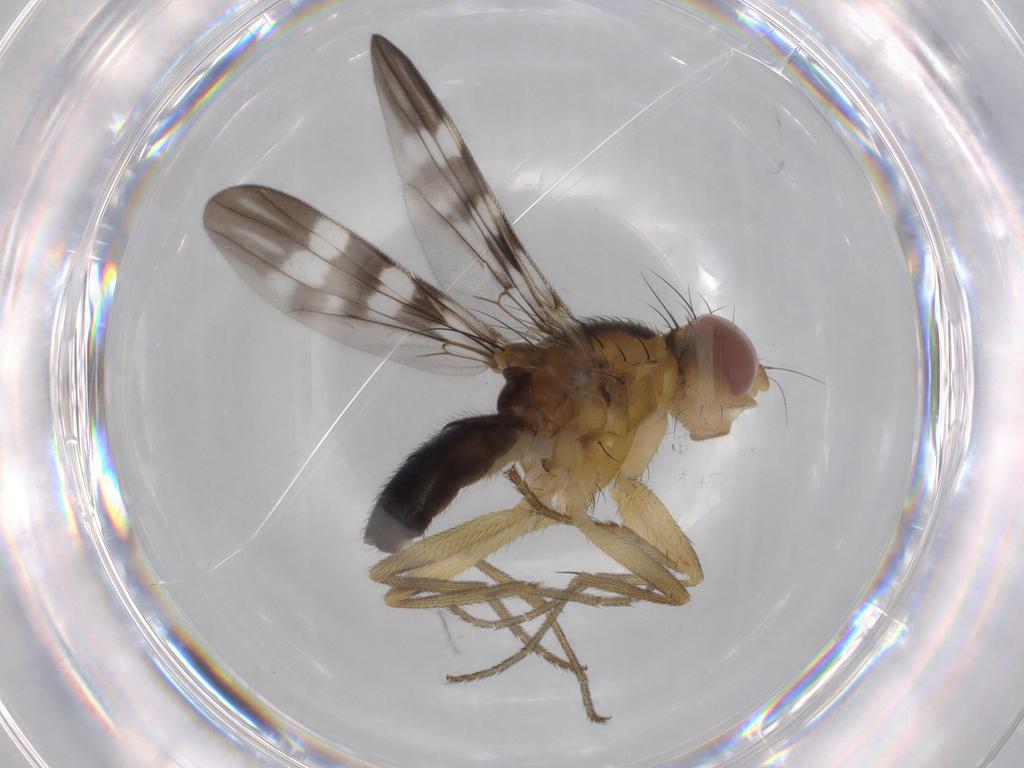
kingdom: Animalia
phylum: Arthropoda
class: Insecta
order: Diptera
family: Tephritidae
